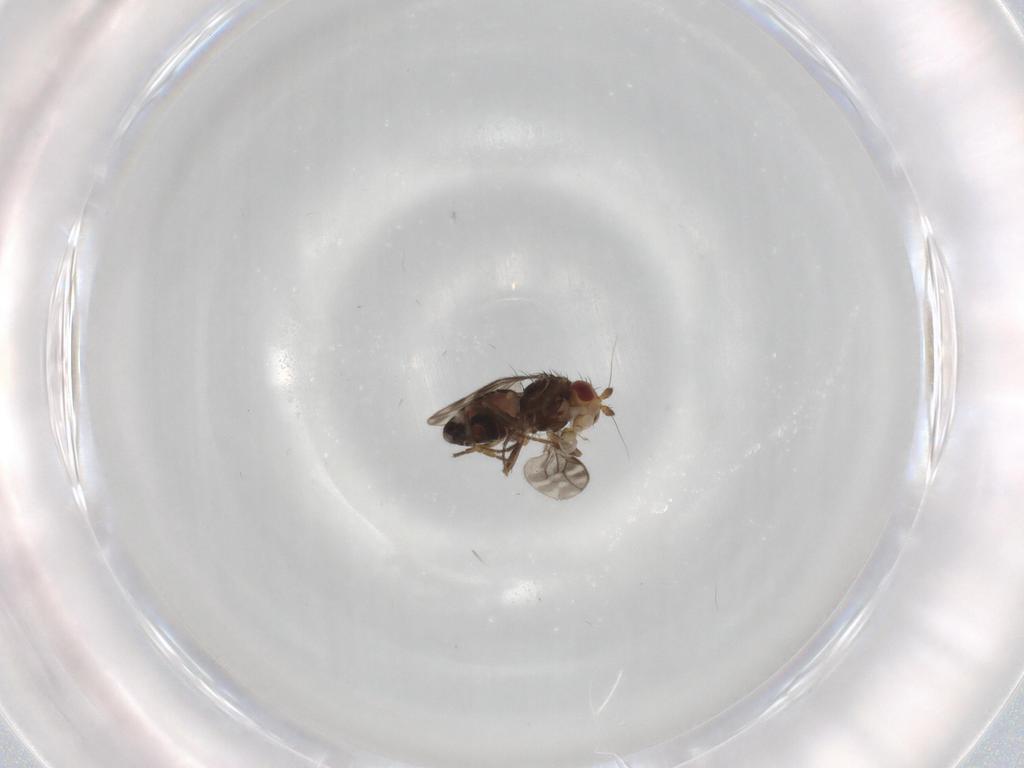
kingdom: Animalia
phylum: Arthropoda
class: Insecta
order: Diptera
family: Sphaeroceridae
